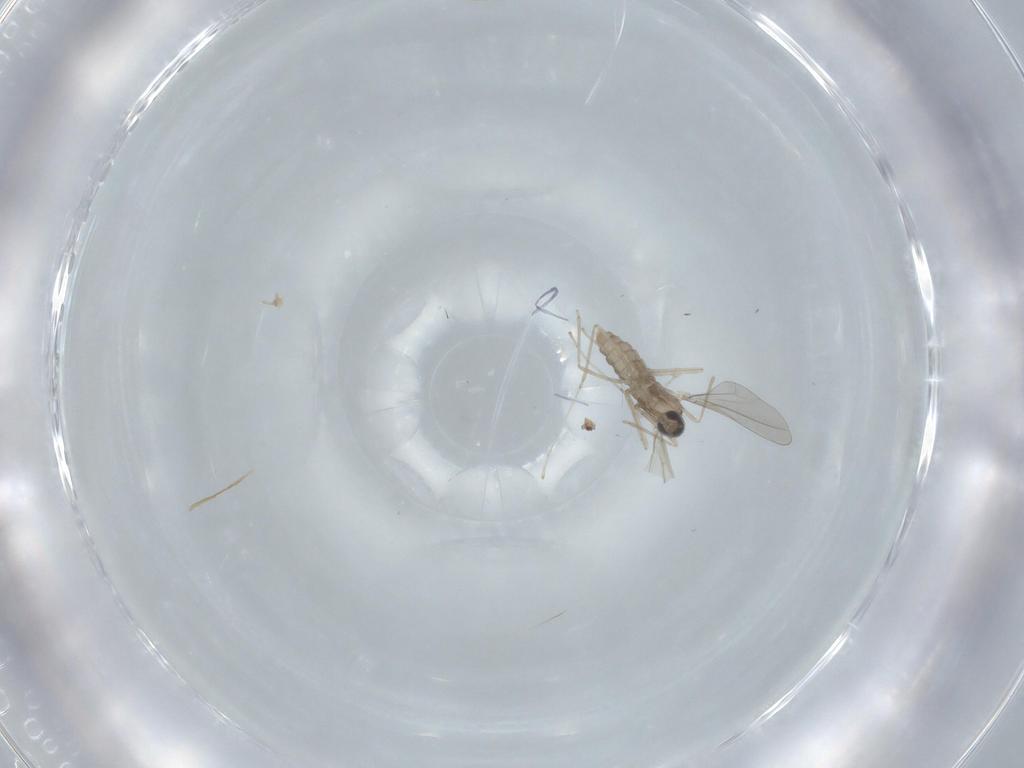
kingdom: Animalia
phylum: Arthropoda
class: Insecta
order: Diptera
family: Cecidomyiidae
